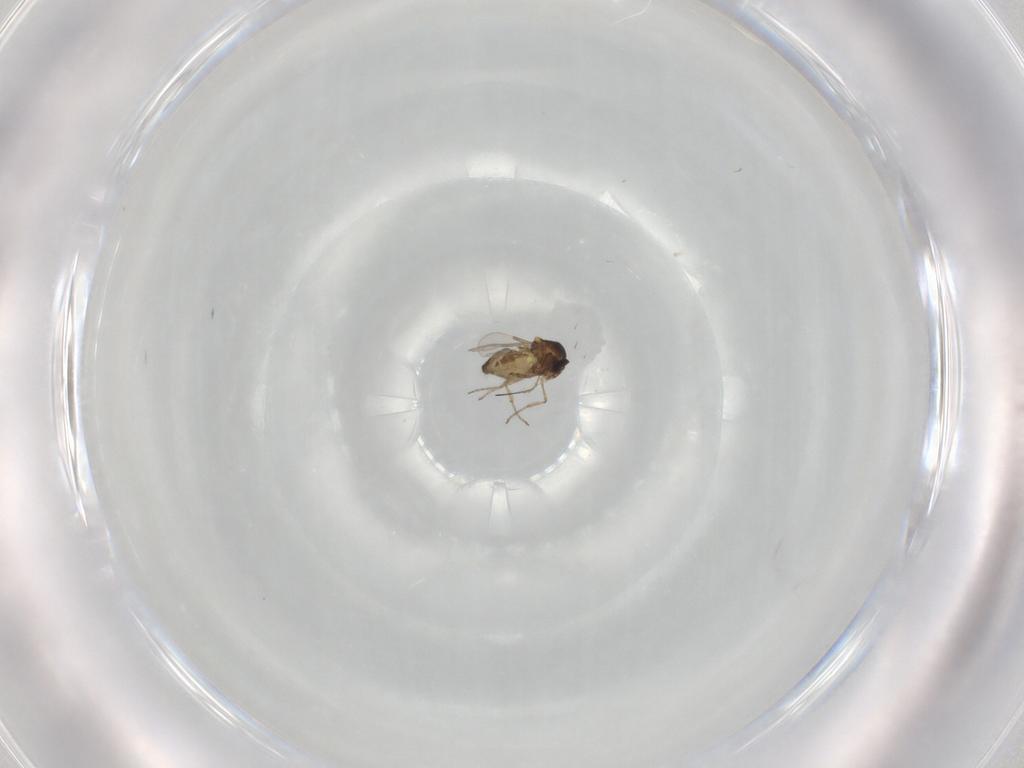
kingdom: Animalia
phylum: Arthropoda
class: Insecta
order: Diptera
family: Ceratopogonidae
